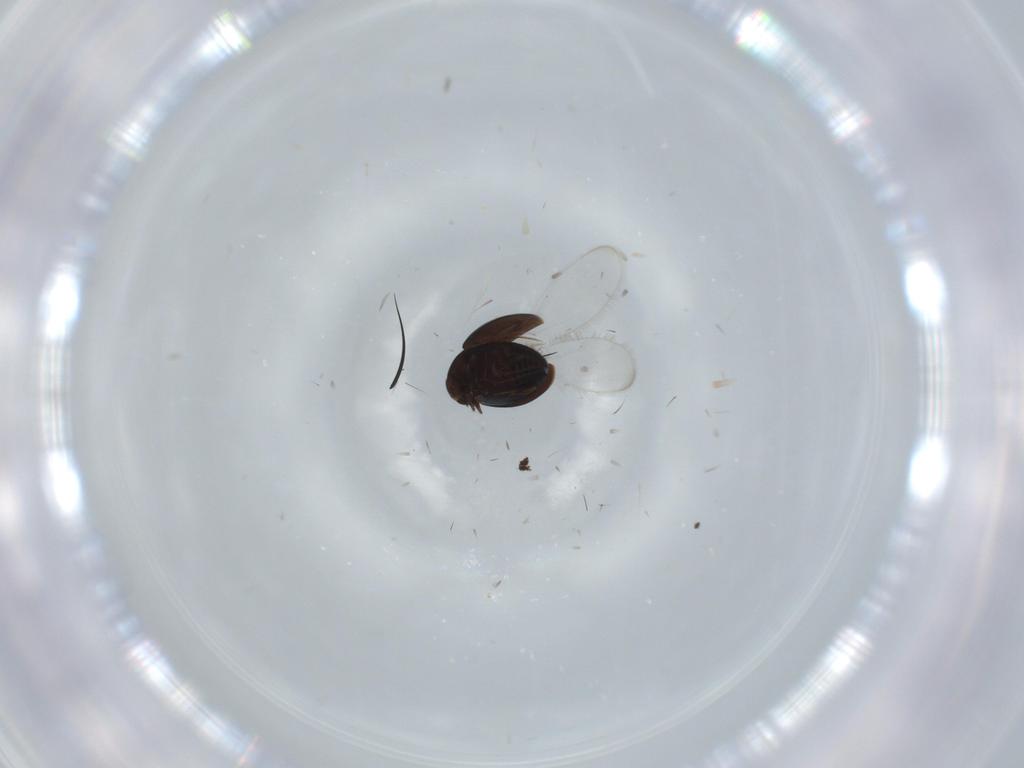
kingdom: Animalia
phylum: Arthropoda
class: Insecta
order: Coleoptera
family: Corylophidae
